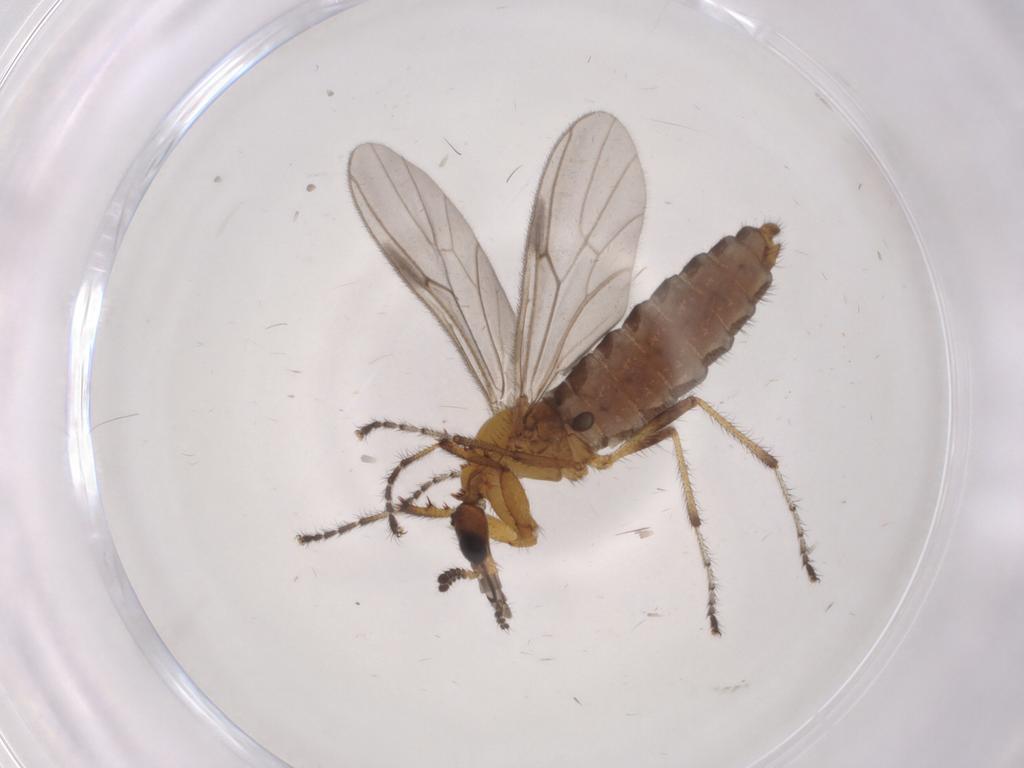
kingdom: Animalia
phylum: Arthropoda
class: Insecta
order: Diptera
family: Bibionidae
